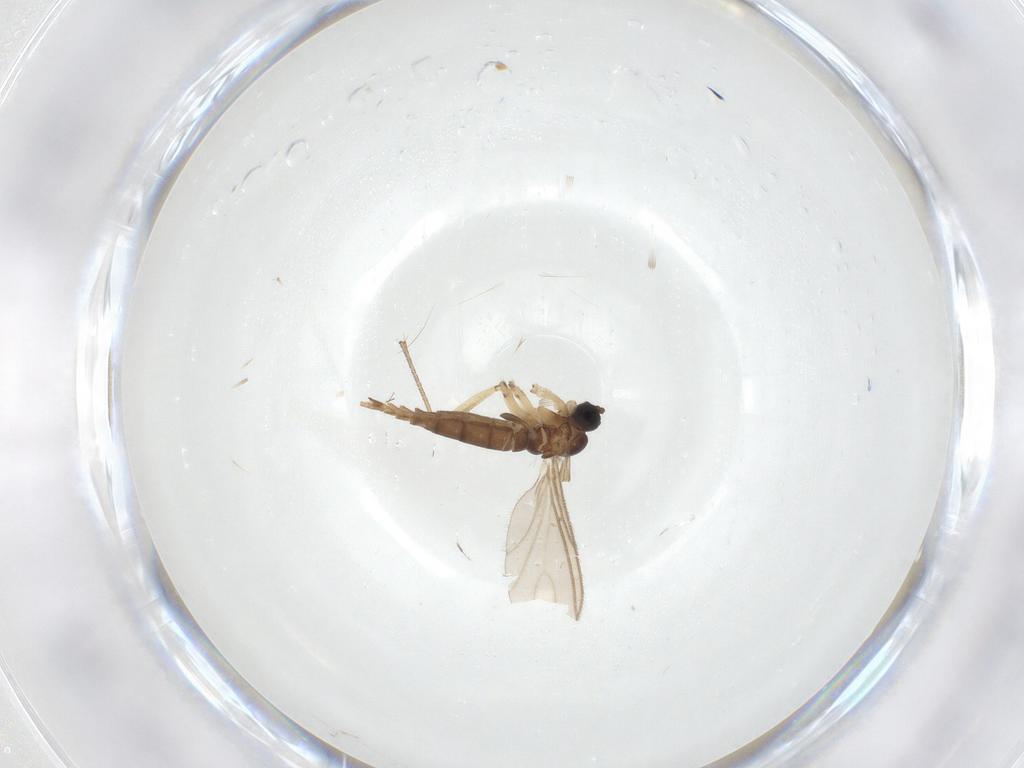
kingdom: Animalia
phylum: Arthropoda
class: Insecta
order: Diptera
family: Sciaridae
